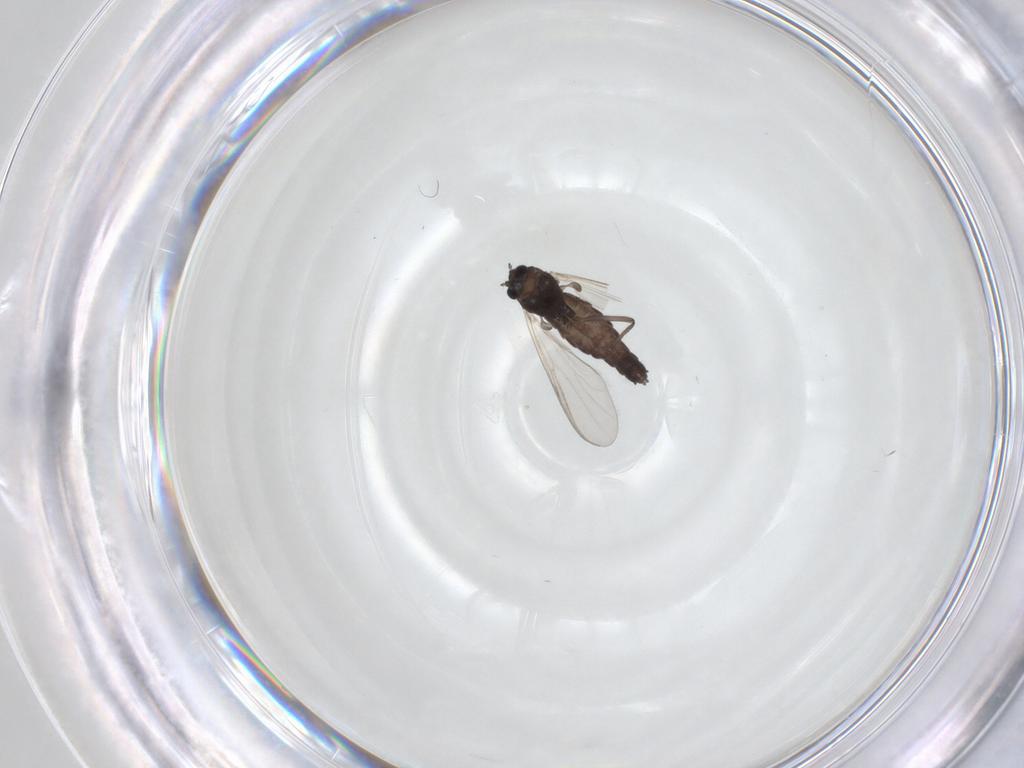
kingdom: Animalia
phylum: Arthropoda
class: Insecta
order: Diptera
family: Chironomidae
